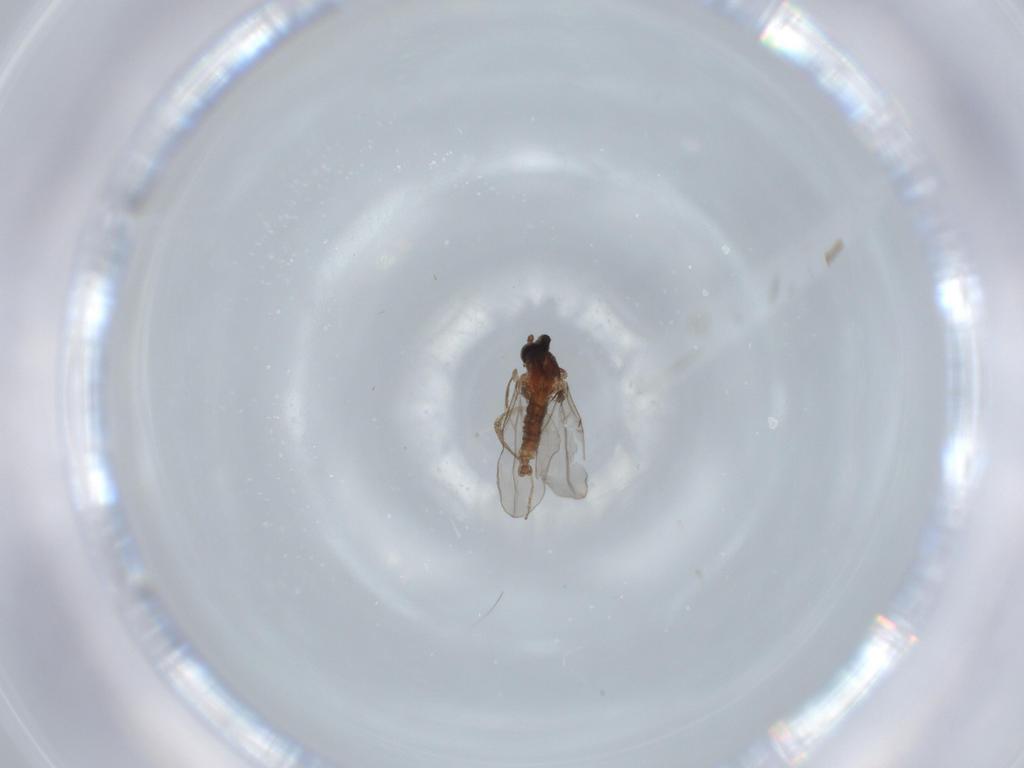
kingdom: Animalia
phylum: Arthropoda
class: Insecta
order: Diptera
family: Cecidomyiidae
